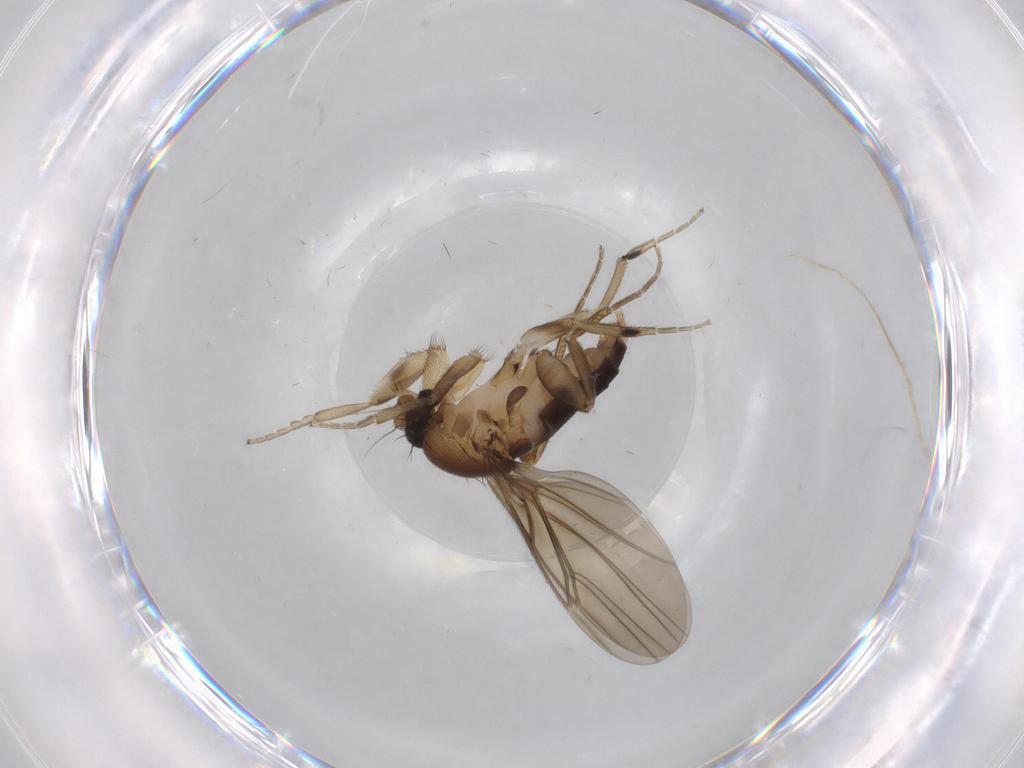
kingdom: Animalia
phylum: Arthropoda
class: Insecta
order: Diptera
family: Phoridae
